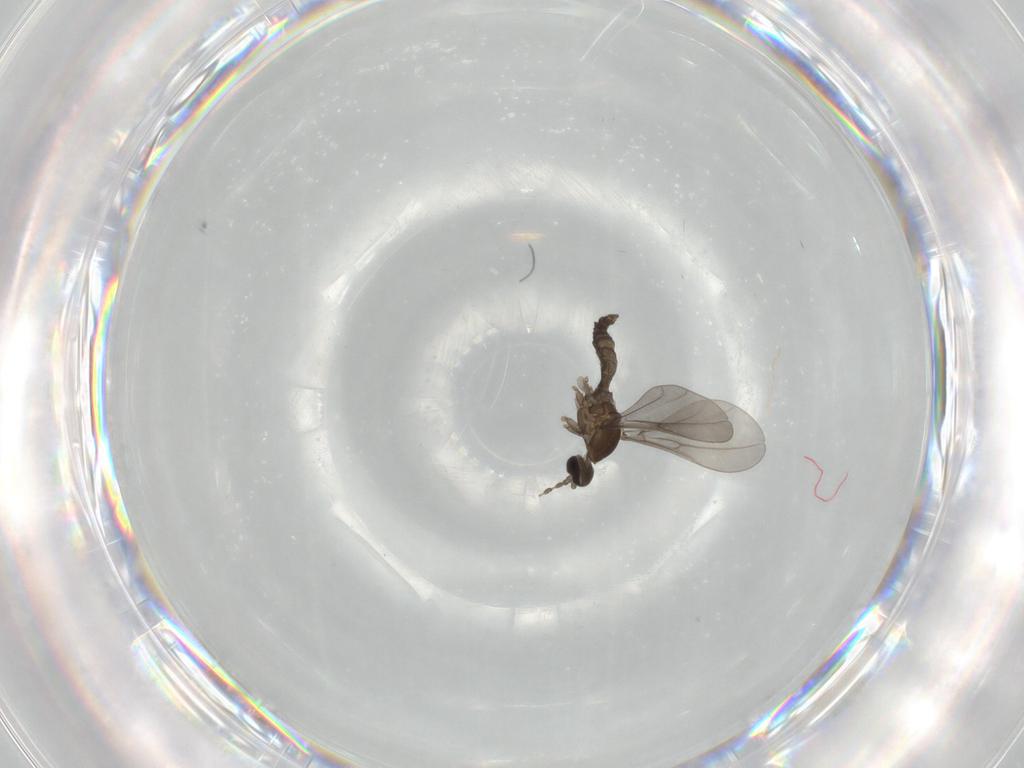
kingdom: Animalia
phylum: Arthropoda
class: Insecta
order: Diptera
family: Cecidomyiidae
